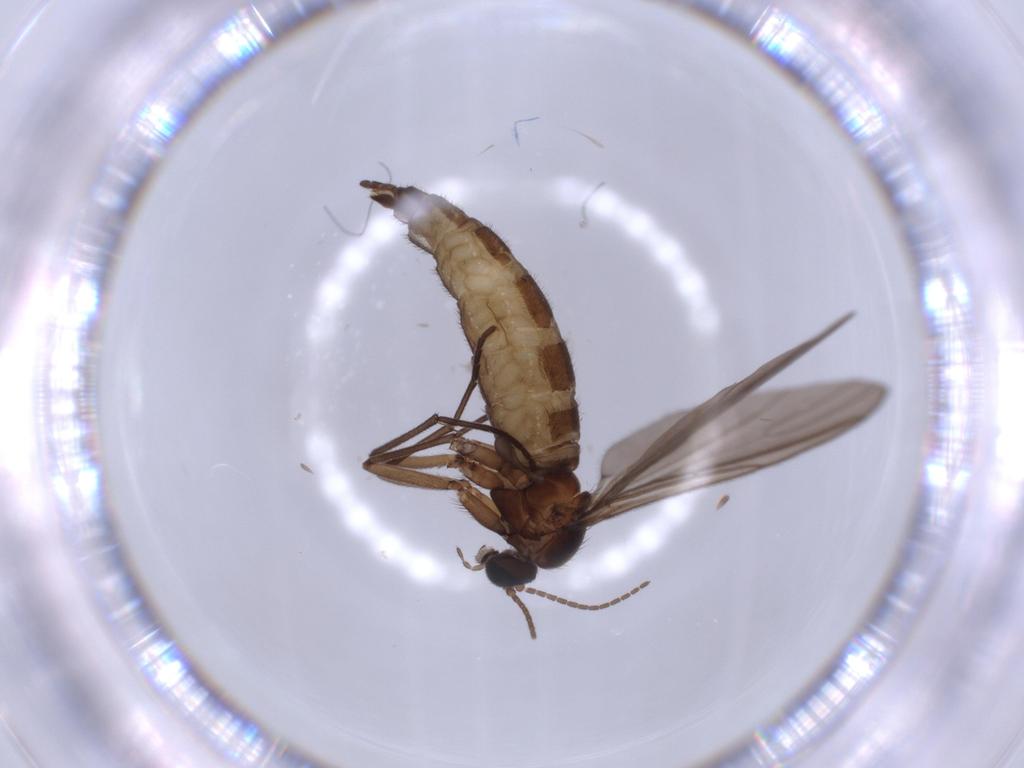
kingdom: Animalia
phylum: Arthropoda
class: Insecta
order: Diptera
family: Sciaridae
